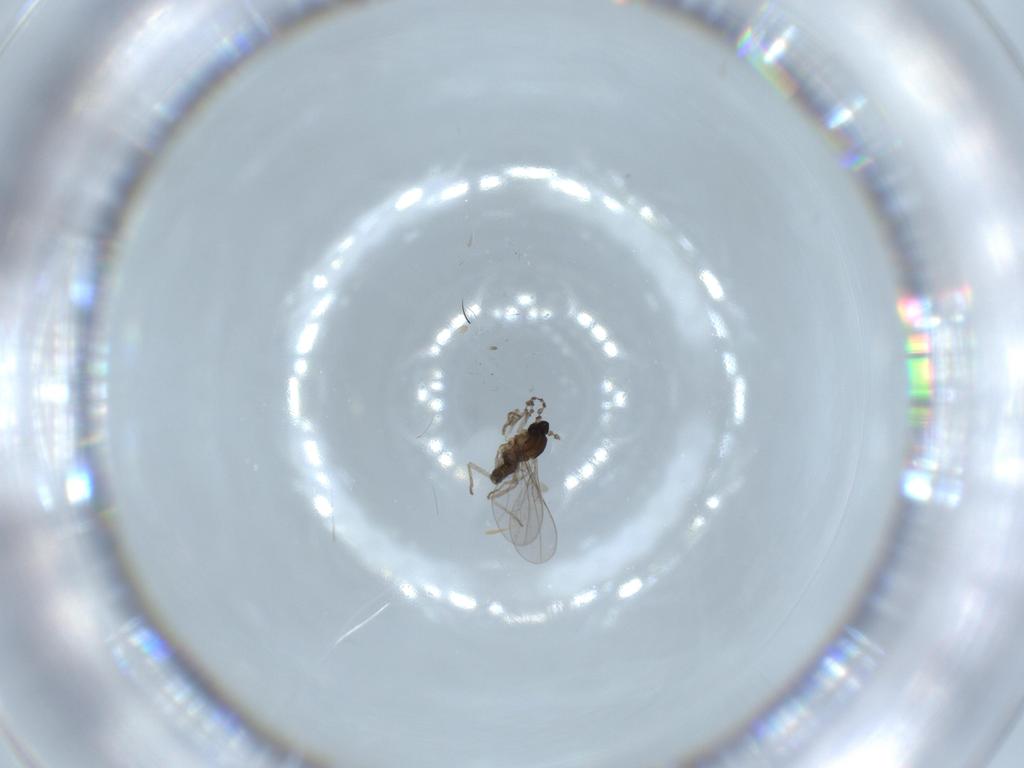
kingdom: Animalia
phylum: Arthropoda
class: Insecta
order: Diptera
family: Cecidomyiidae
